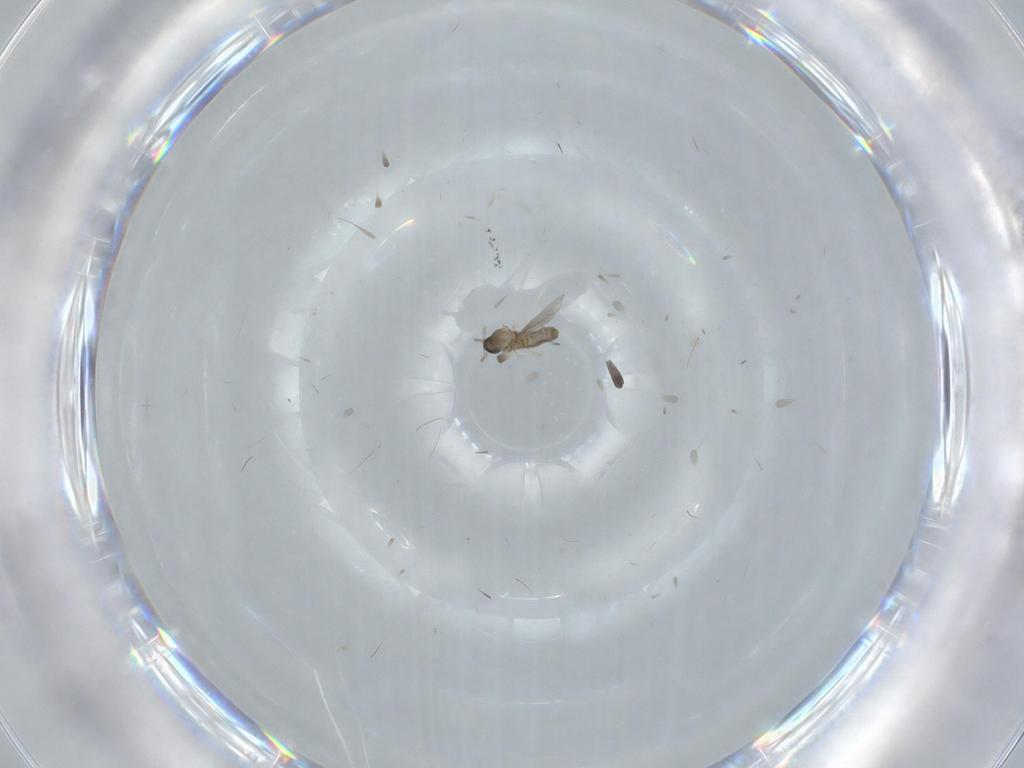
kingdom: Animalia
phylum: Arthropoda
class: Insecta
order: Diptera
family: Cecidomyiidae
